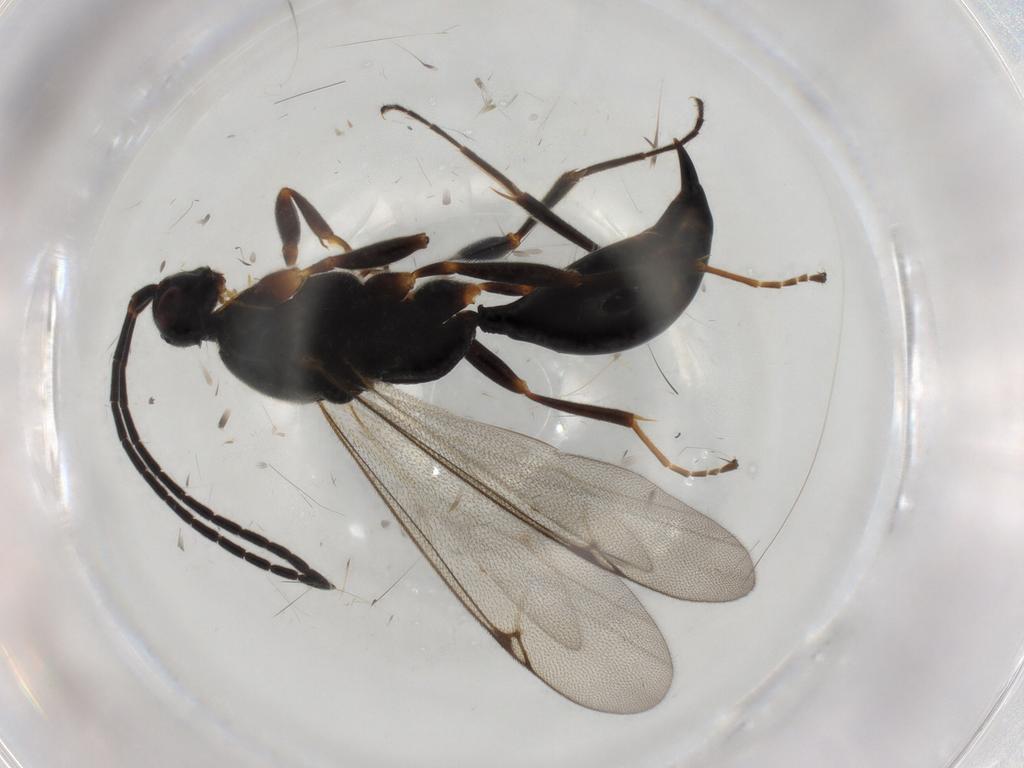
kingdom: Animalia
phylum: Arthropoda
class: Insecta
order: Hymenoptera
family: Proctotrupidae
